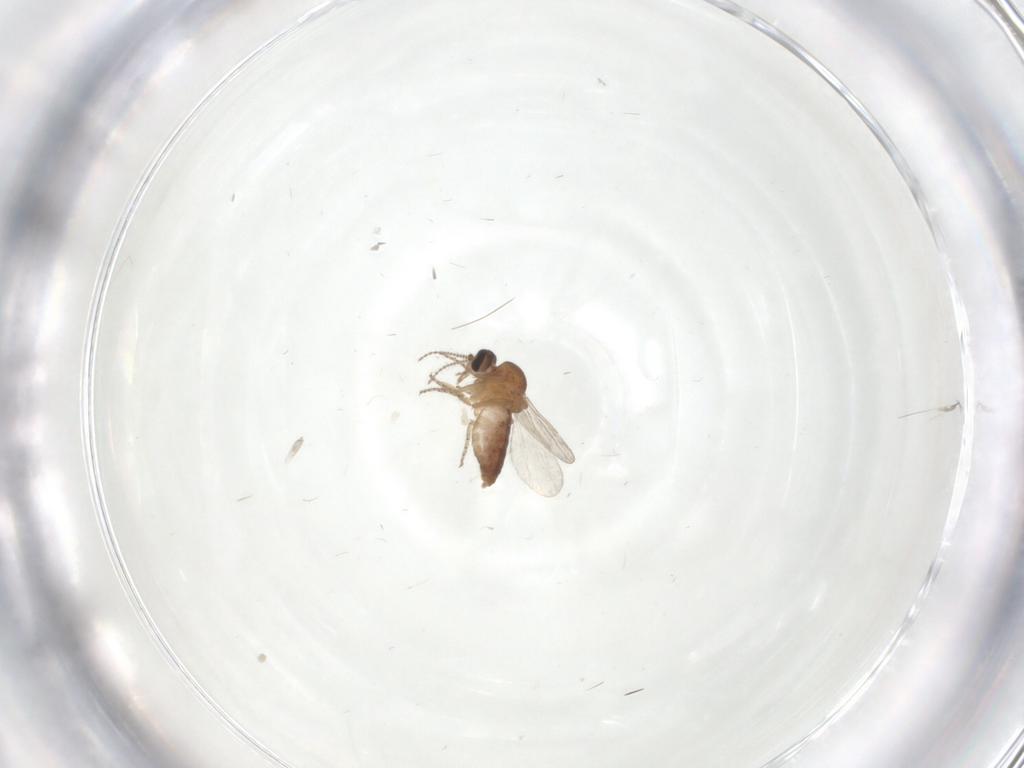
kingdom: Animalia
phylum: Arthropoda
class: Insecta
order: Diptera
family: Ceratopogonidae
